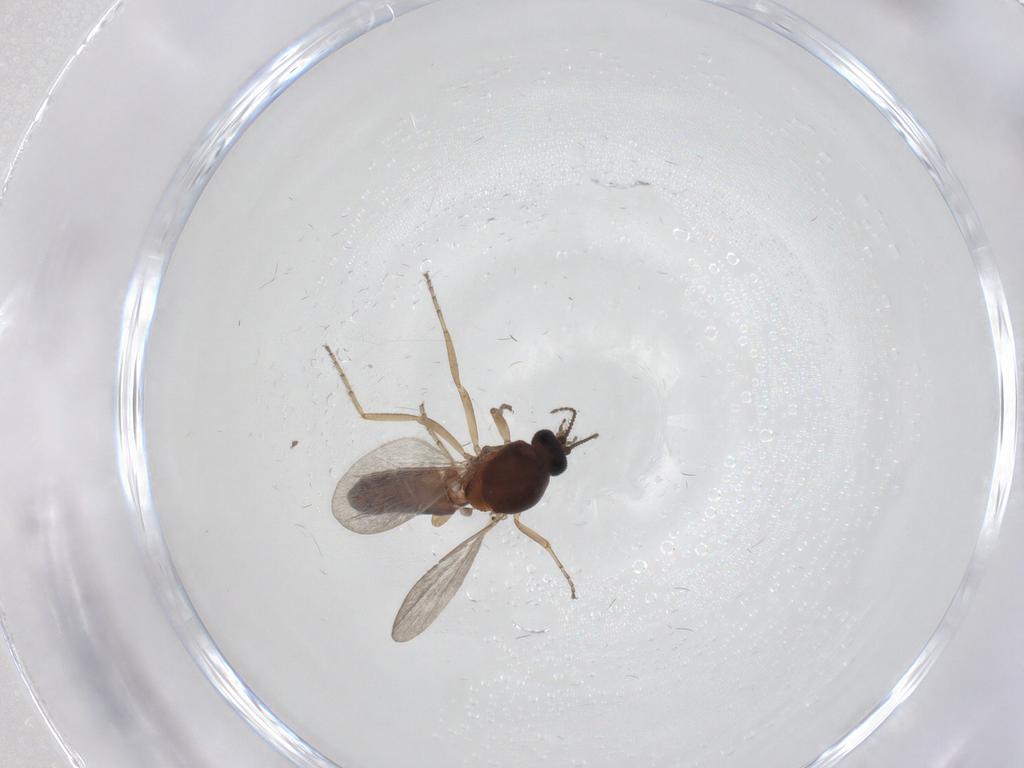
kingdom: Animalia
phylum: Arthropoda
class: Insecta
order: Diptera
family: Ceratopogonidae
